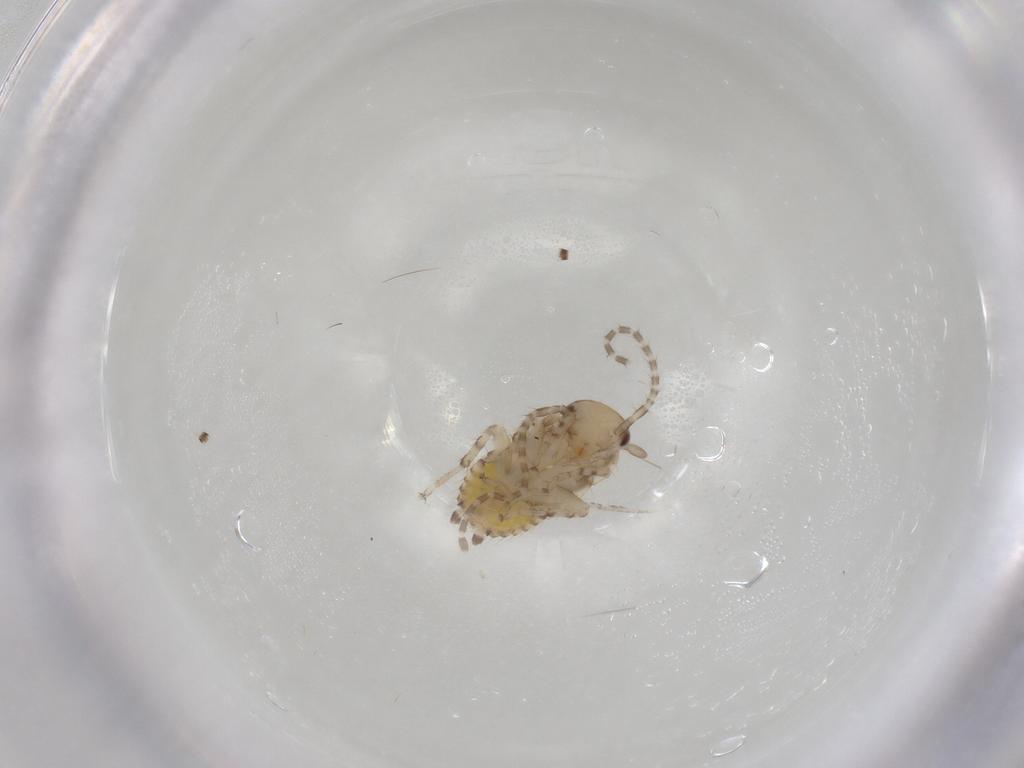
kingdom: Animalia
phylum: Arthropoda
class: Insecta
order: Blattodea
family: Ectobiidae
